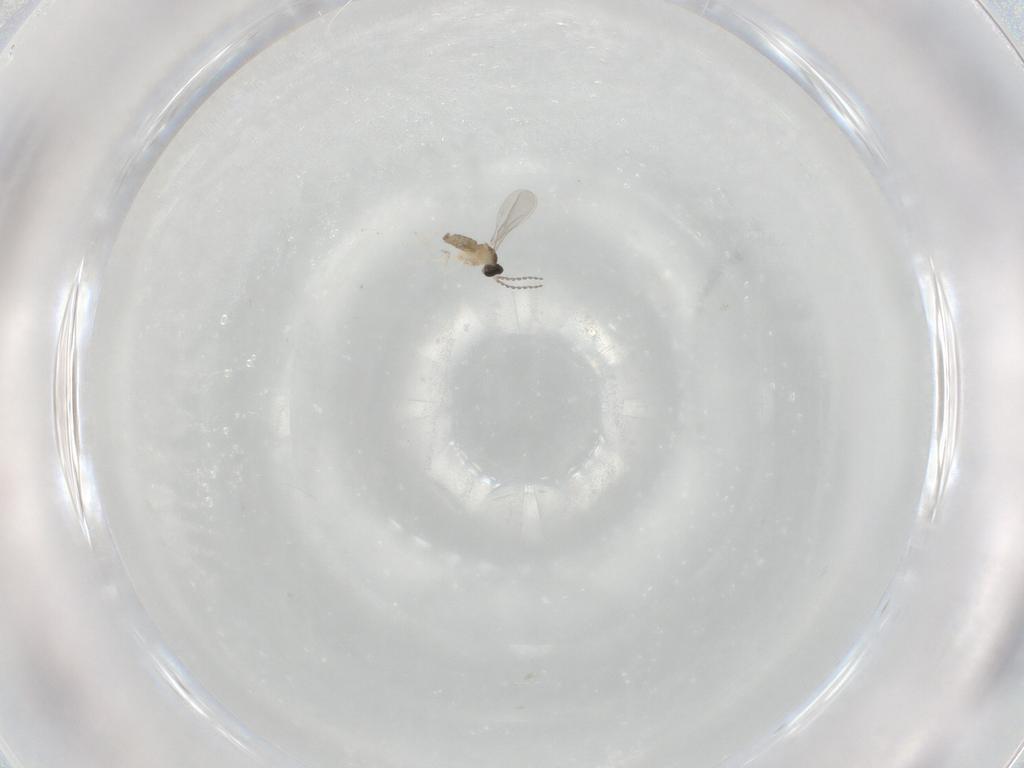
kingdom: Animalia
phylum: Arthropoda
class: Insecta
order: Diptera
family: Cecidomyiidae
